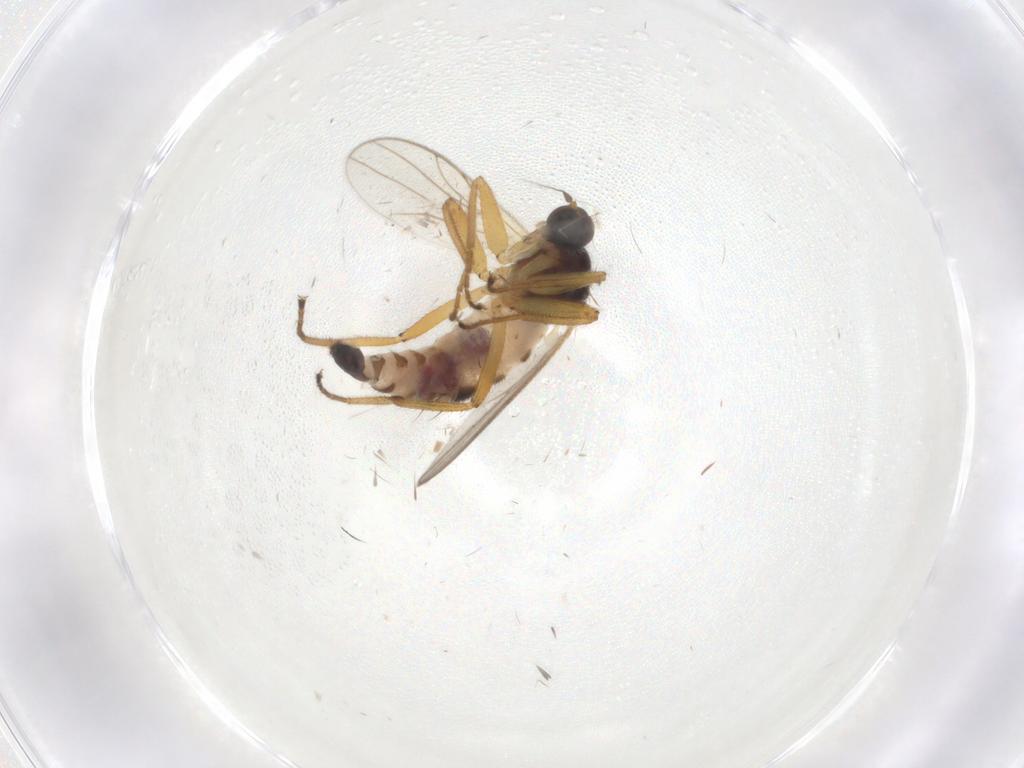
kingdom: Animalia
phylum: Arthropoda
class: Insecta
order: Diptera
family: Hybotidae
